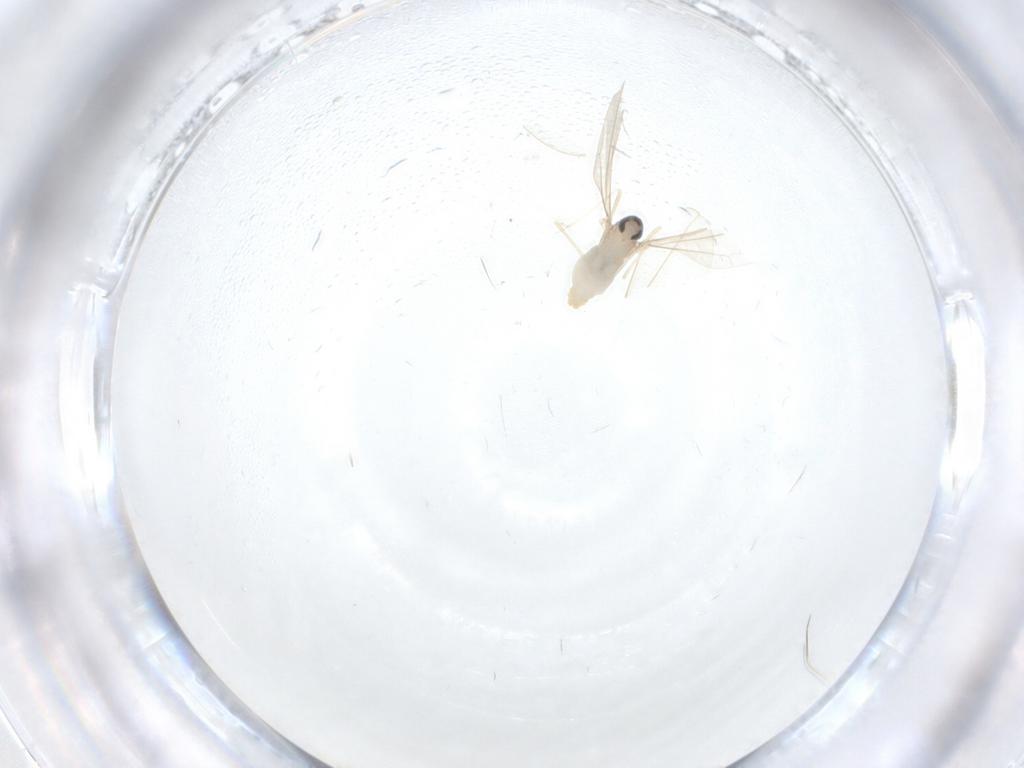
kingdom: Animalia
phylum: Arthropoda
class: Insecta
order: Diptera
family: Cecidomyiidae
